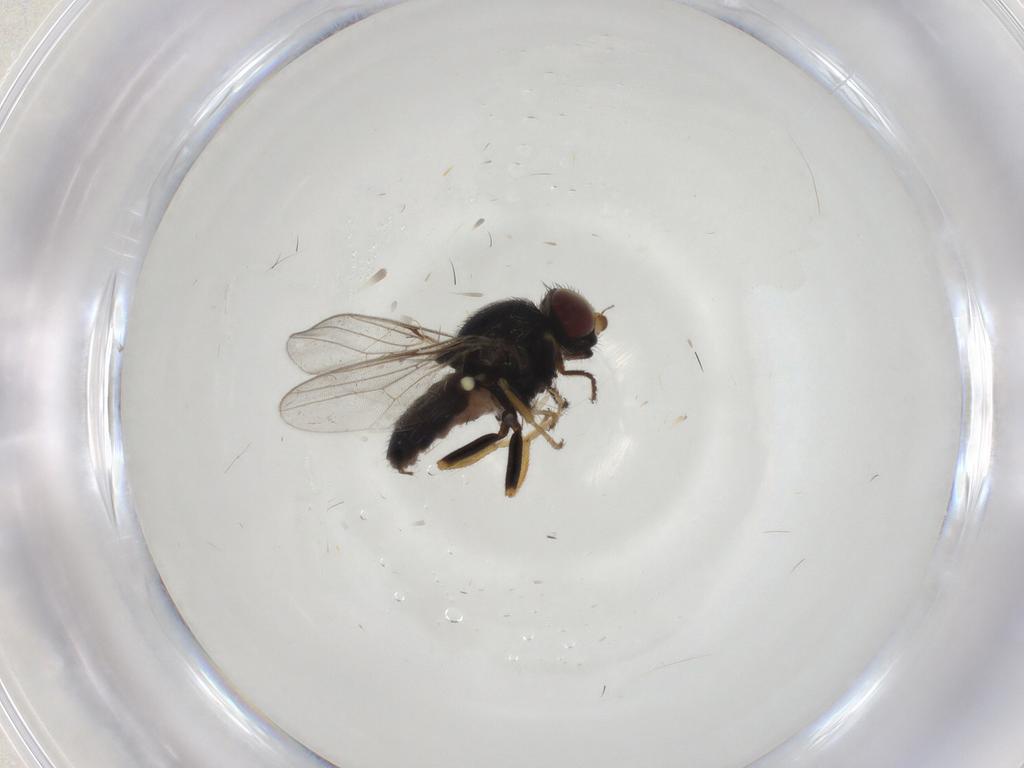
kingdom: Animalia
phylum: Arthropoda
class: Insecta
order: Diptera
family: Chloropidae
